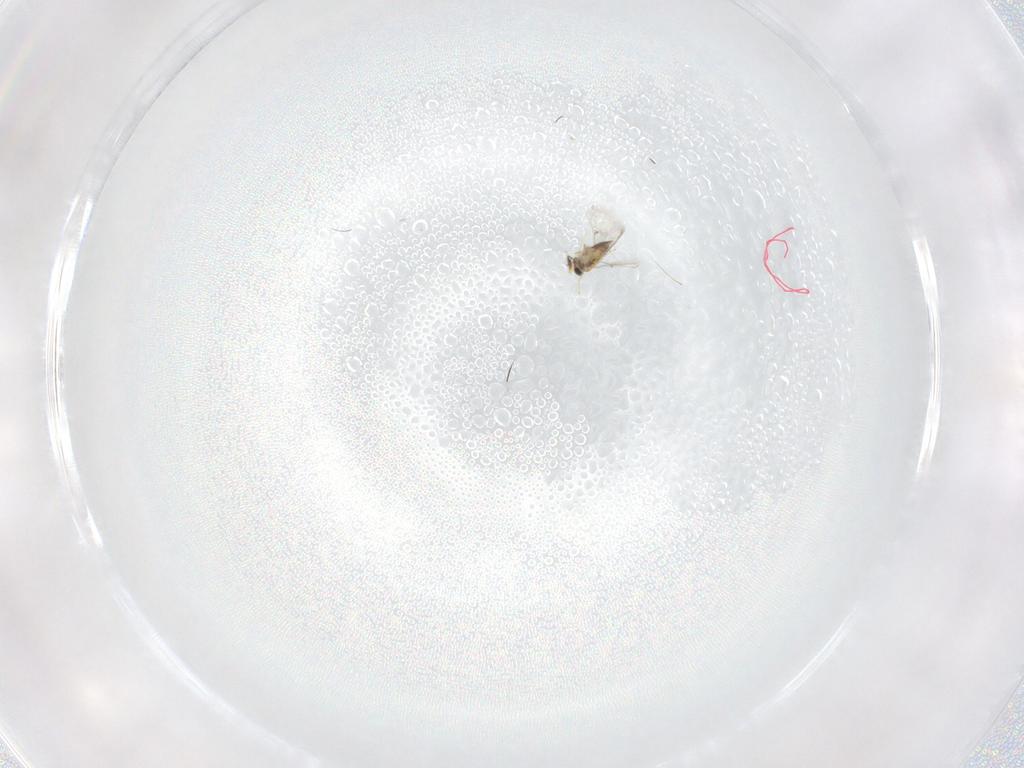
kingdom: Animalia
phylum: Arthropoda
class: Insecta
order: Hymenoptera
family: Trichogrammatidae
